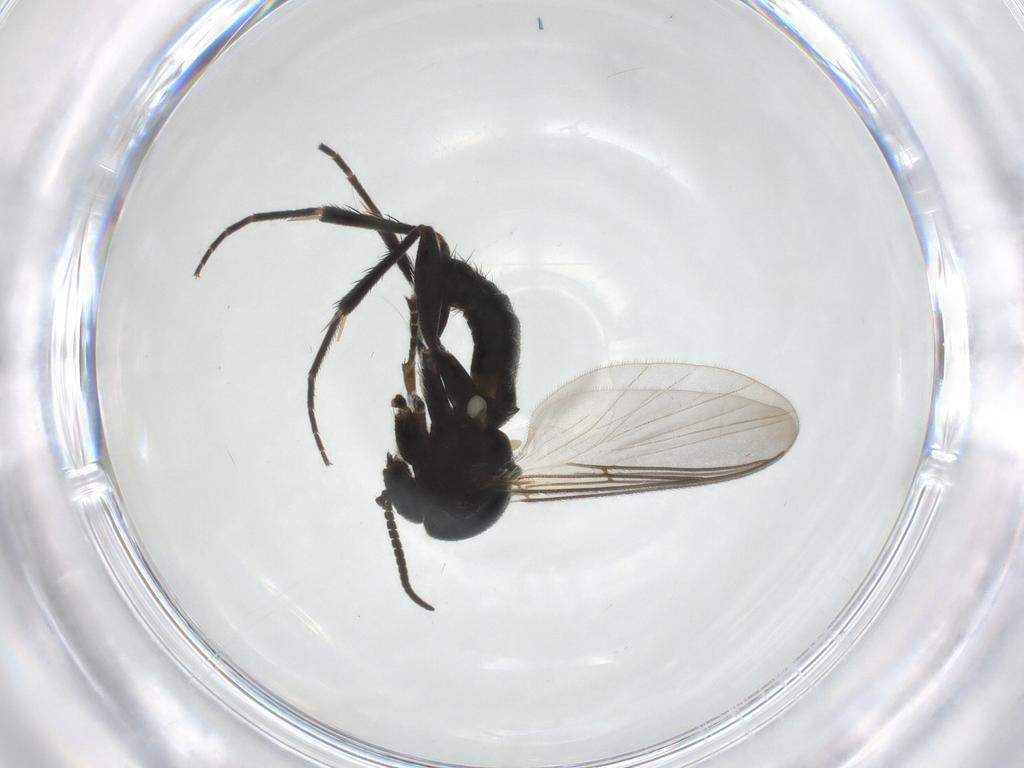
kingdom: Animalia
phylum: Arthropoda
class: Insecta
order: Diptera
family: Mycetophilidae
